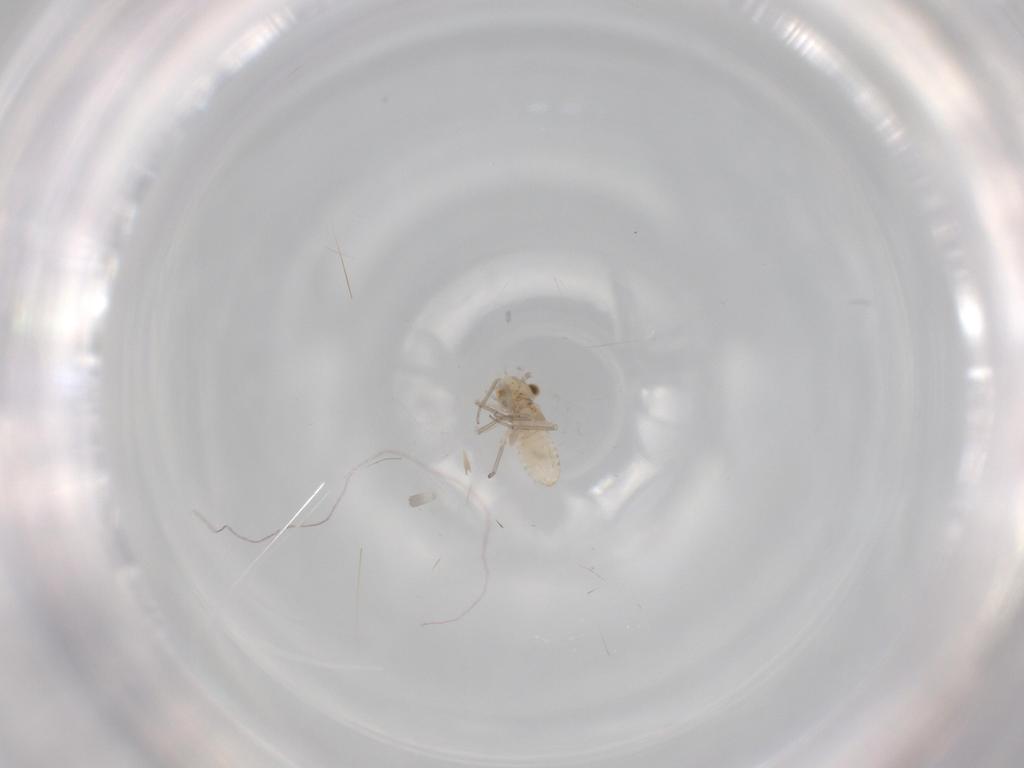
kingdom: Animalia
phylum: Arthropoda
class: Insecta
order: Psocodea
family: Lachesillidae
